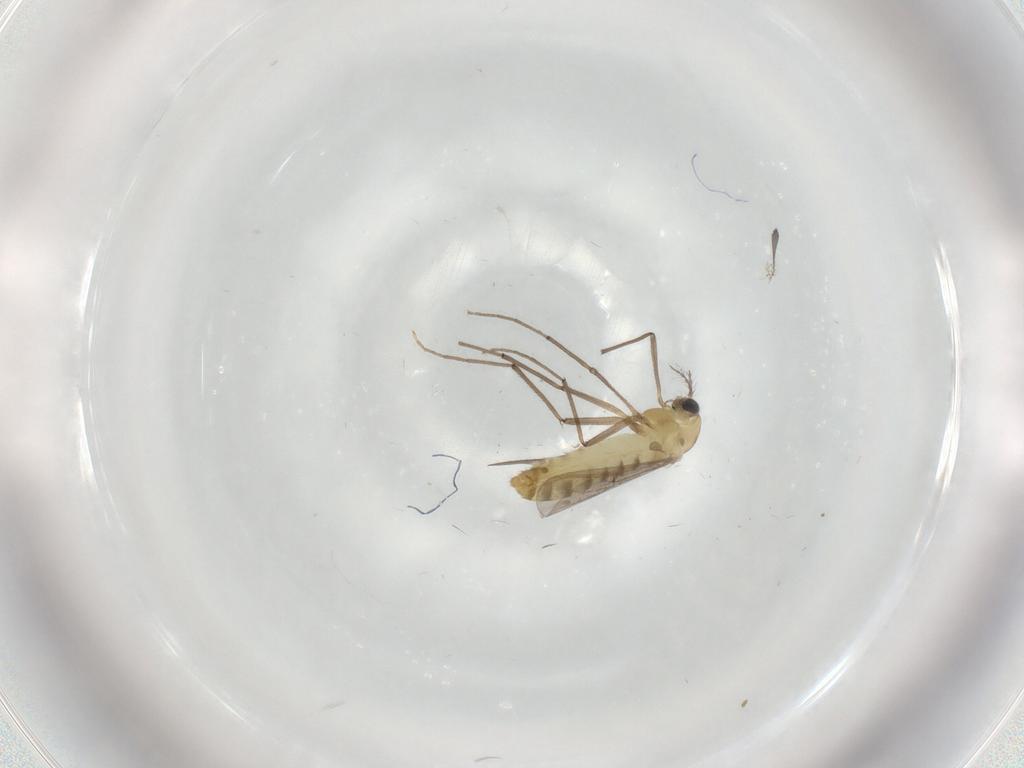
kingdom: Animalia
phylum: Arthropoda
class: Insecta
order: Diptera
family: Chironomidae
